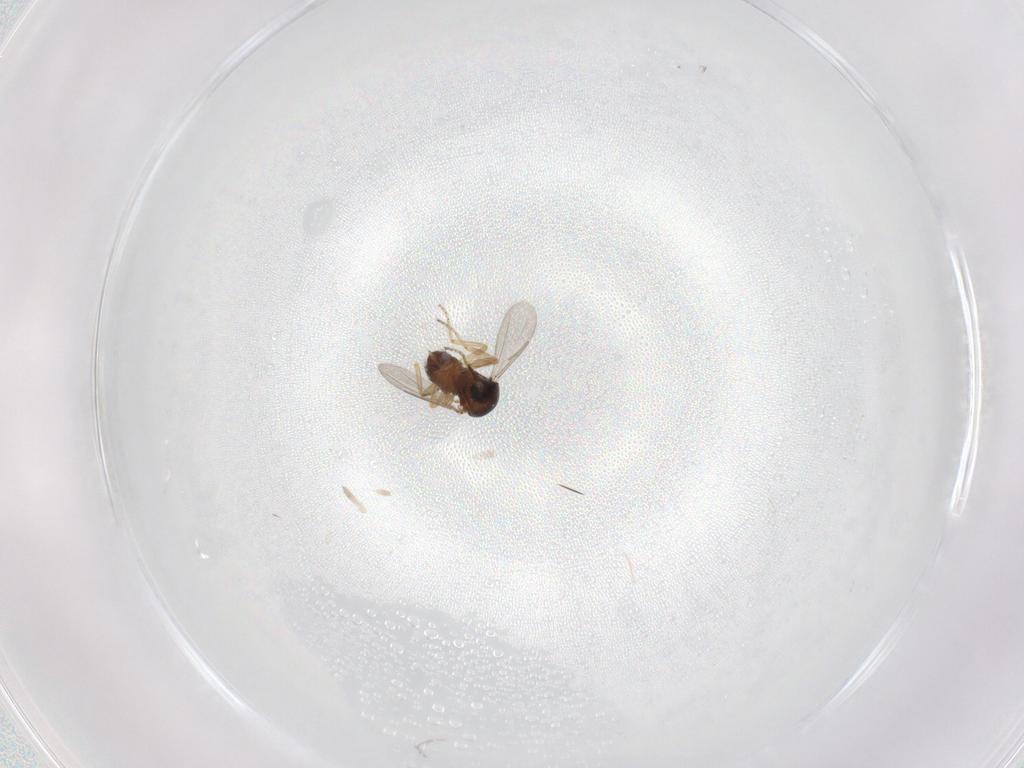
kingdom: Animalia
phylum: Arthropoda
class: Insecta
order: Diptera
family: Ceratopogonidae
